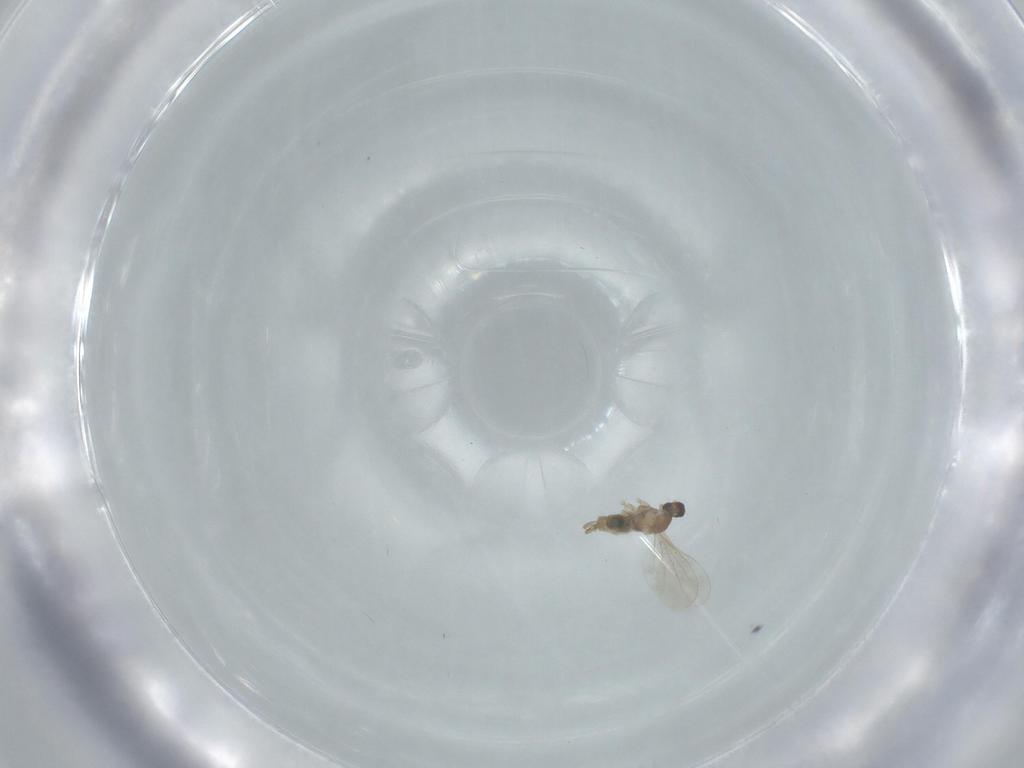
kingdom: Animalia
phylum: Arthropoda
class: Insecta
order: Diptera
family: Cecidomyiidae
